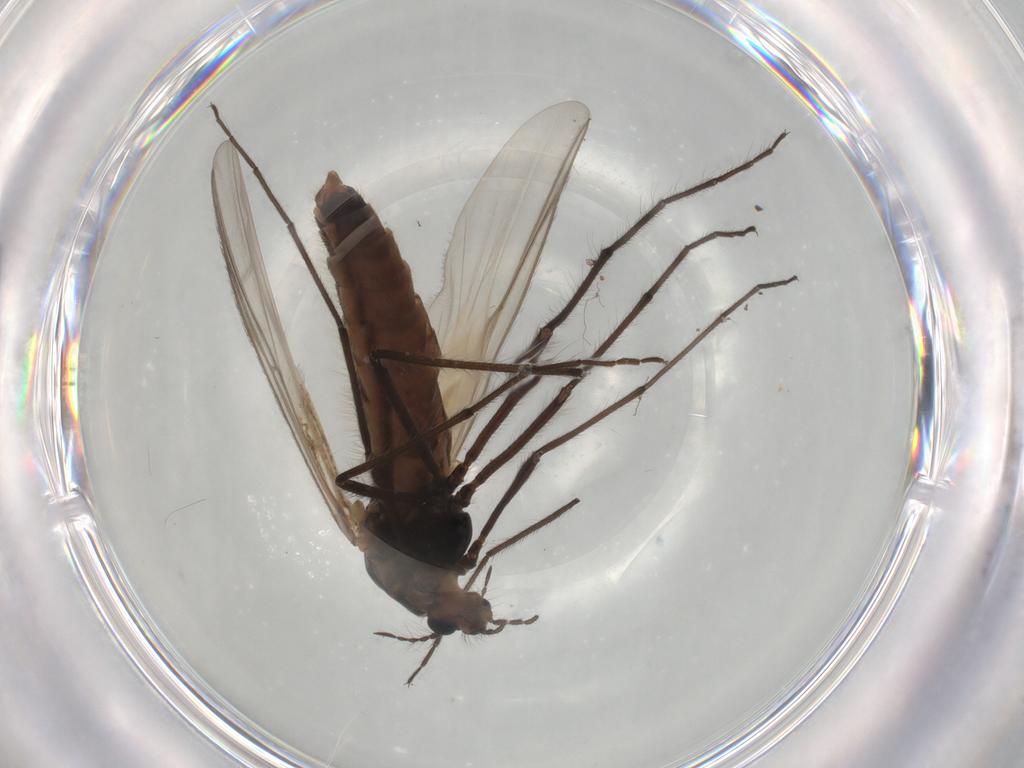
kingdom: Animalia
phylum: Arthropoda
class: Insecta
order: Diptera
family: Chironomidae
